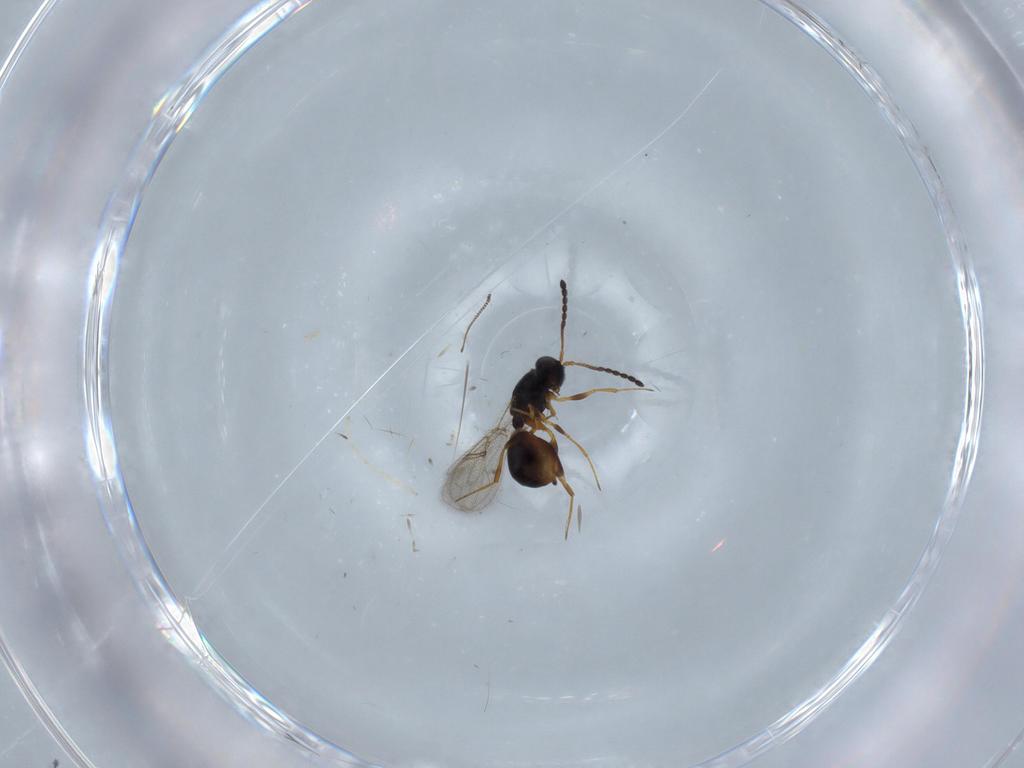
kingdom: Animalia
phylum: Arthropoda
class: Insecta
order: Hymenoptera
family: Figitidae
